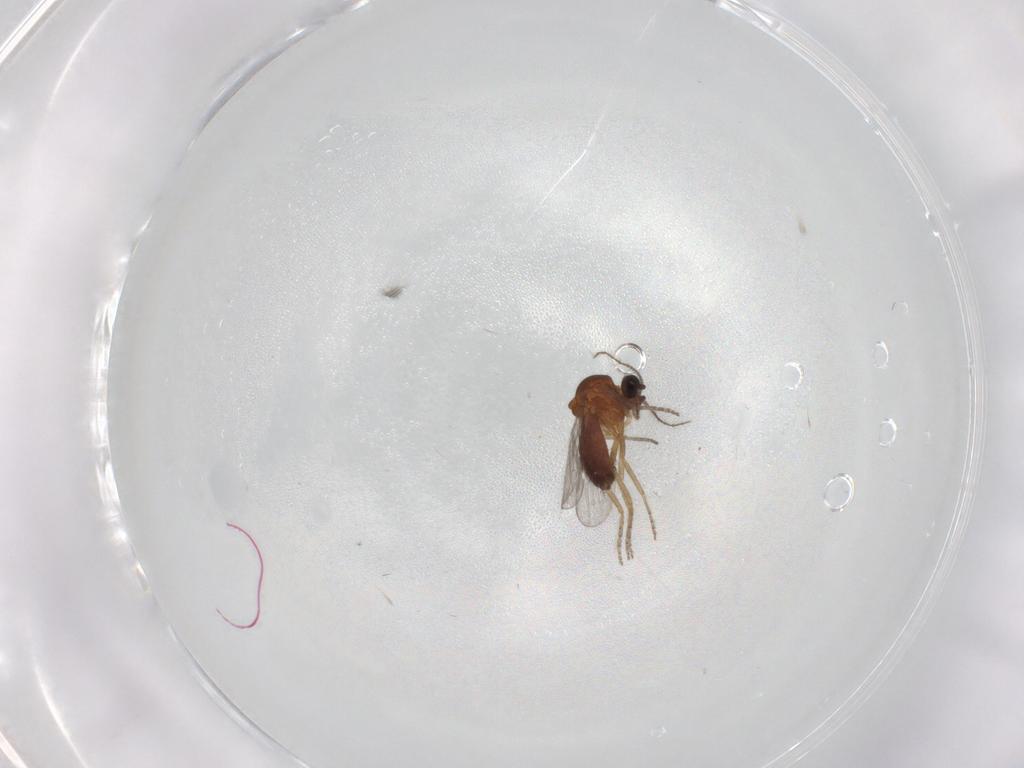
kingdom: Animalia
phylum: Arthropoda
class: Insecta
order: Diptera
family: Ceratopogonidae
